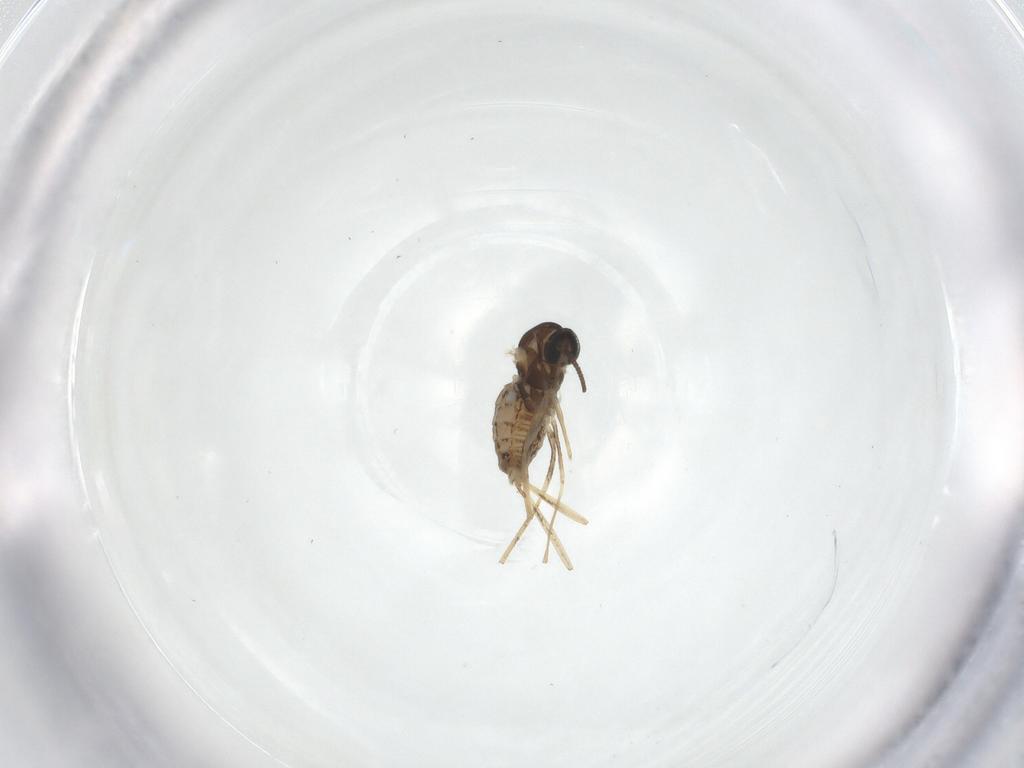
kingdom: Animalia
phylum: Arthropoda
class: Insecta
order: Diptera
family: Cecidomyiidae
